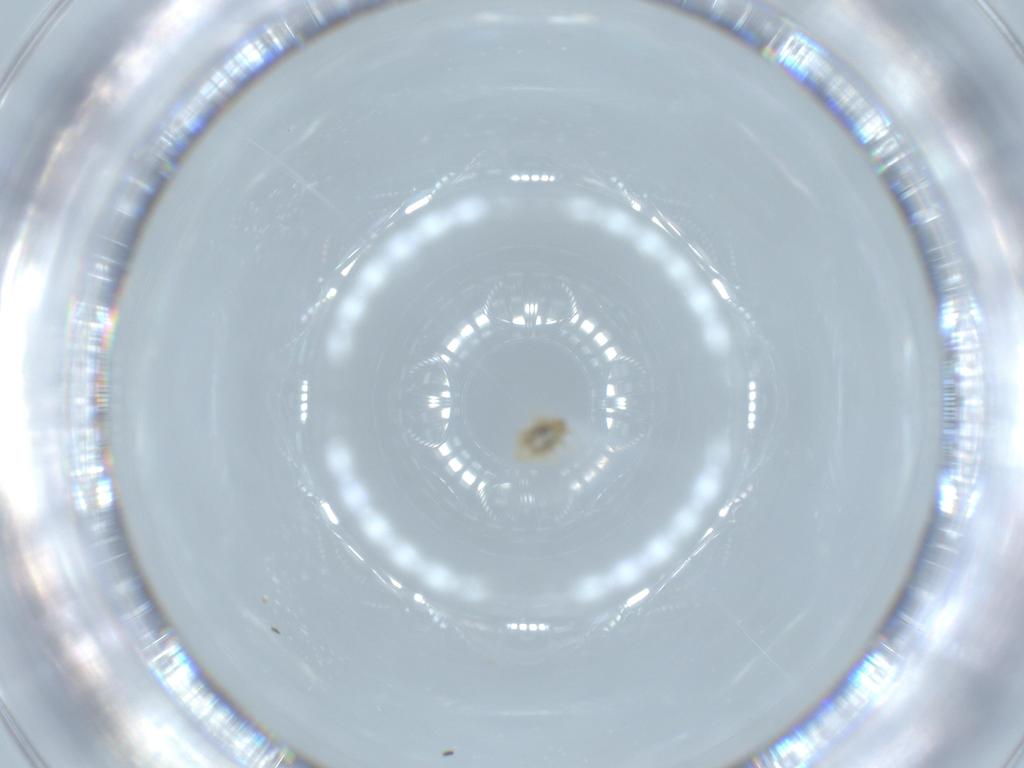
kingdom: Animalia
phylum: Arthropoda
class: Insecta
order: Neuroptera
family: Coniopterygidae
